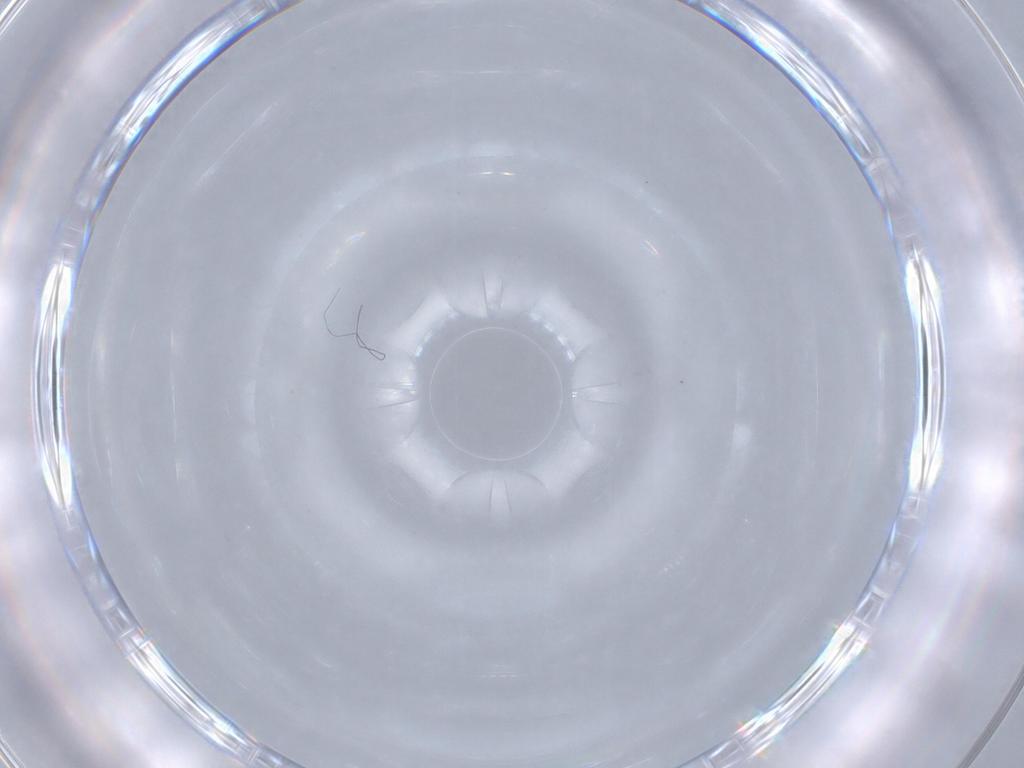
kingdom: Animalia
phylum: Arthropoda
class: Insecta
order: Diptera
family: Dolichopodidae
